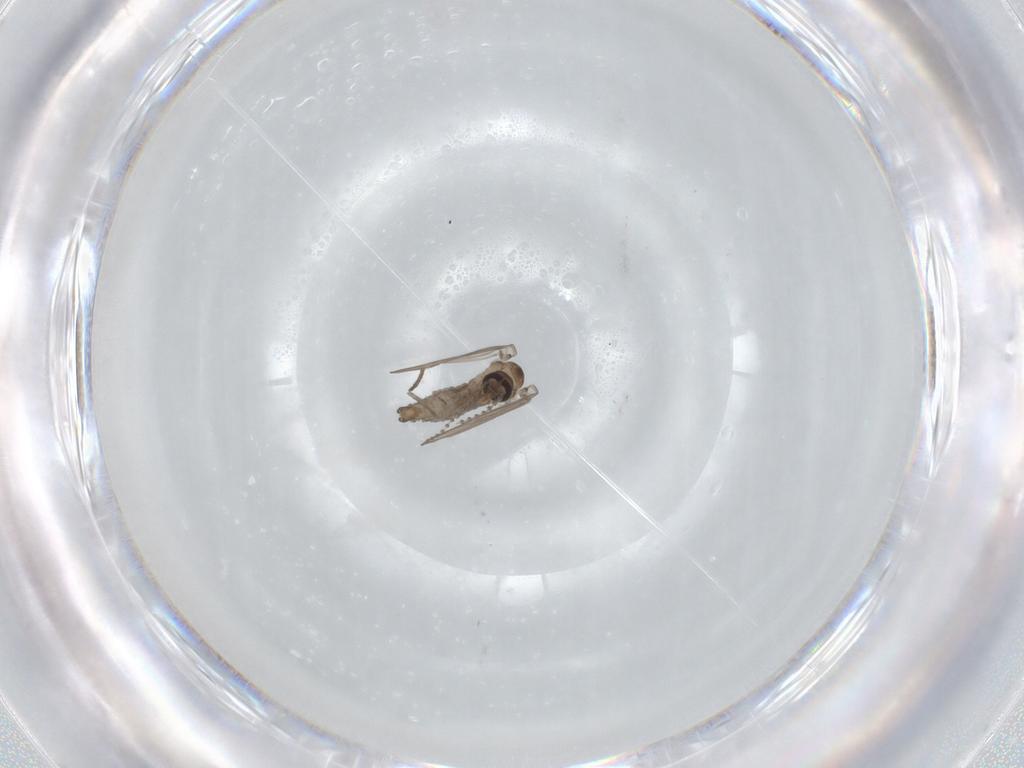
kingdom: Animalia
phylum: Arthropoda
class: Insecta
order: Diptera
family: Psychodidae
